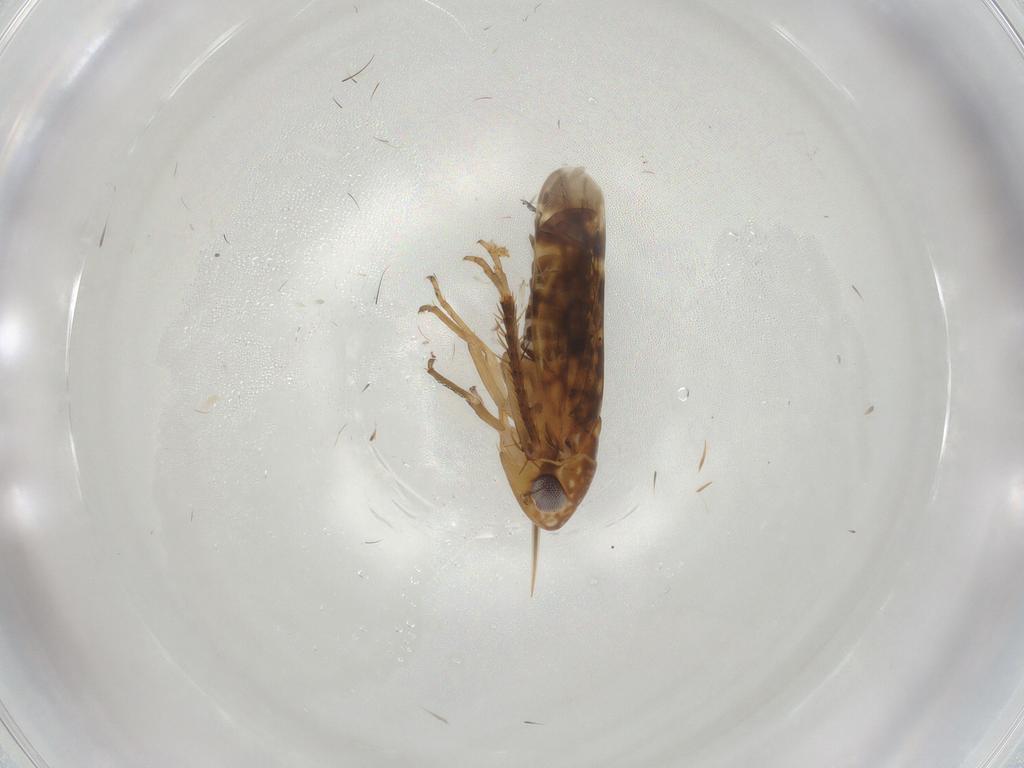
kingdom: Animalia
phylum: Arthropoda
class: Insecta
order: Hemiptera
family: Cicadellidae
